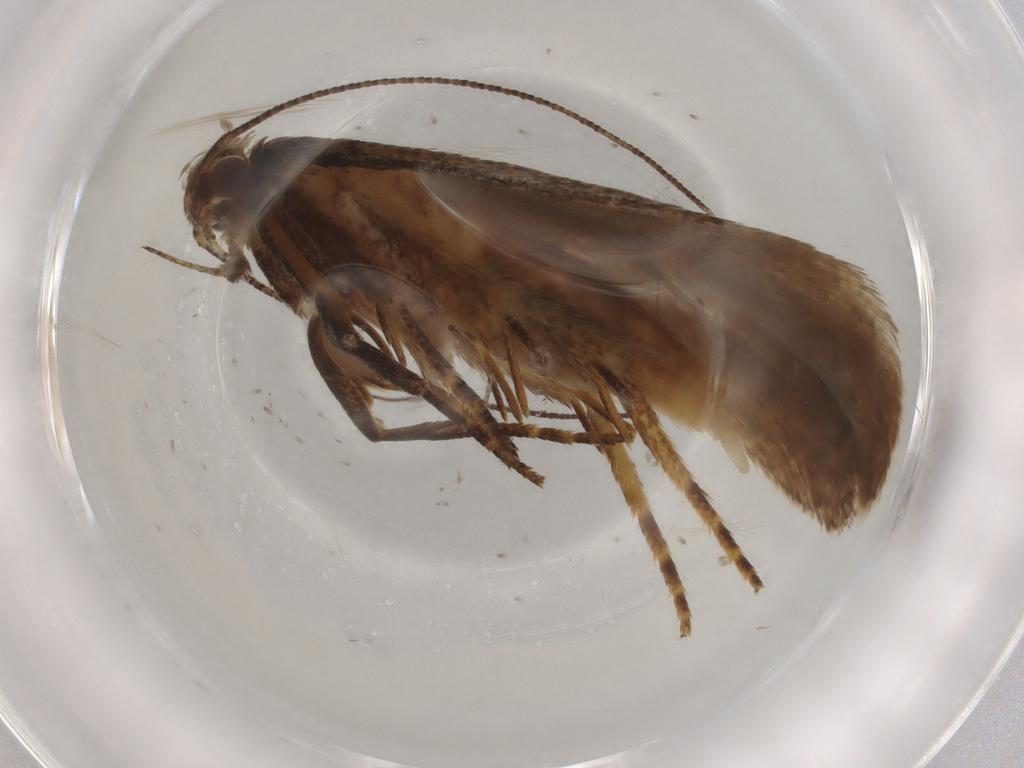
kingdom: Animalia
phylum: Arthropoda
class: Insecta
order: Lepidoptera
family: Gelechiidae
